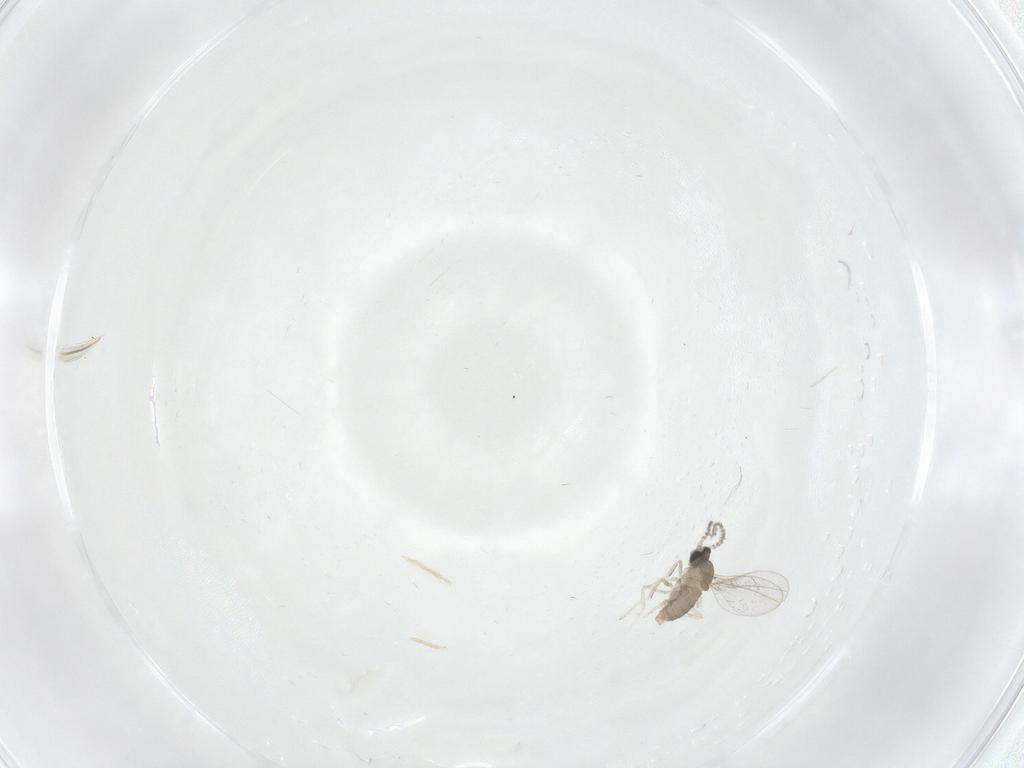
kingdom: Animalia
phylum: Arthropoda
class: Insecta
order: Diptera
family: Cecidomyiidae
